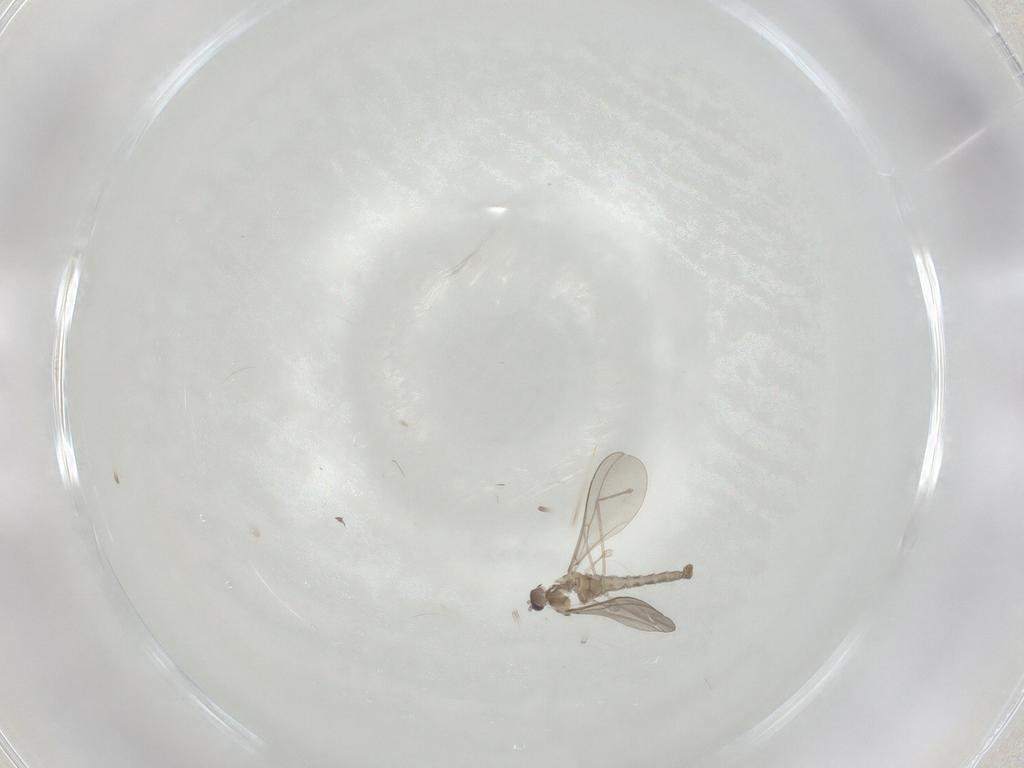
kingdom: Animalia
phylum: Arthropoda
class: Insecta
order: Diptera
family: Cecidomyiidae
